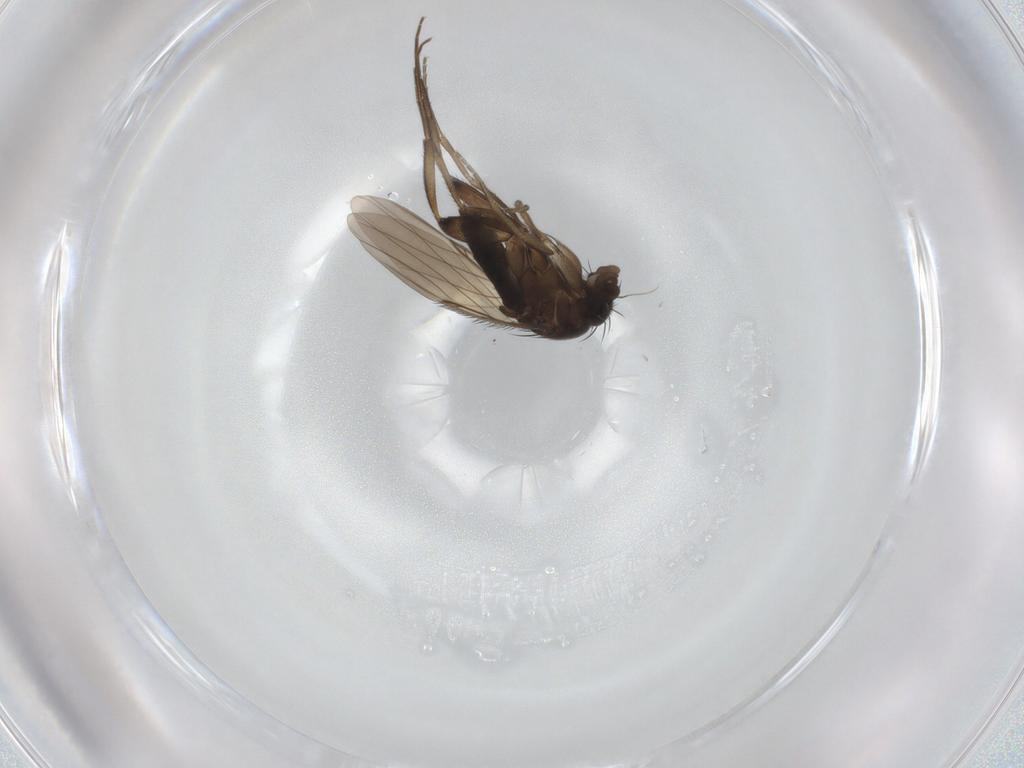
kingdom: Animalia
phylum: Arthropoda
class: Insecta
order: Diptera
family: Phoridae
